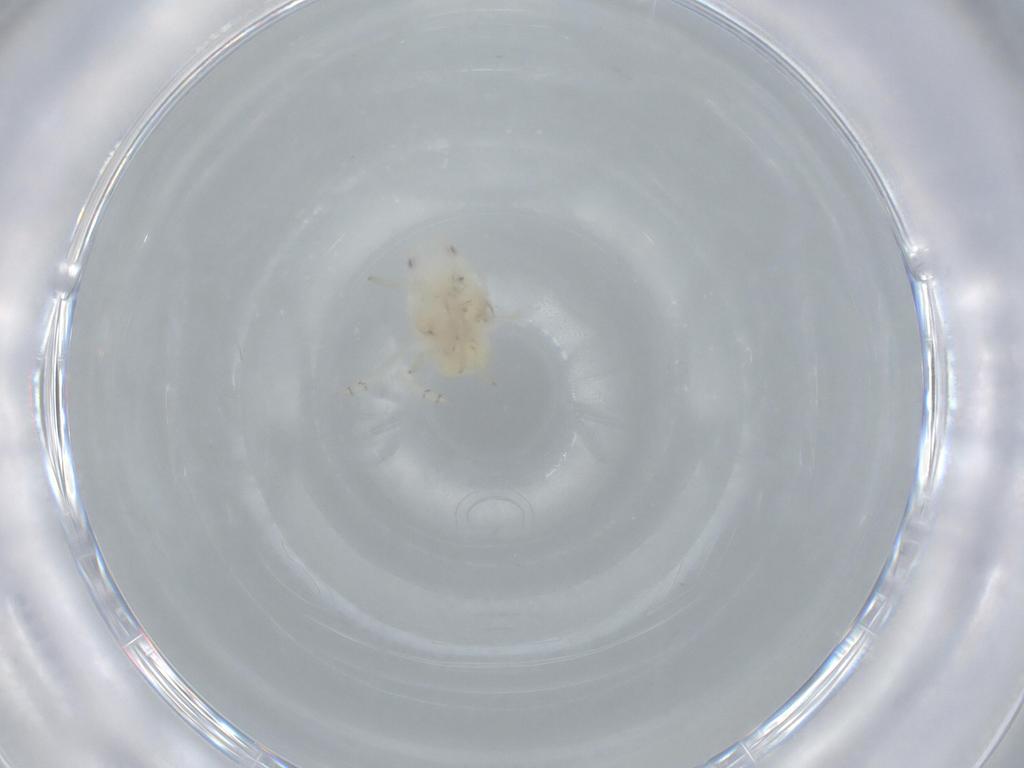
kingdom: Animalia
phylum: Arthropoda
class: Insecta
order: Hemiptera
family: Flatidae
